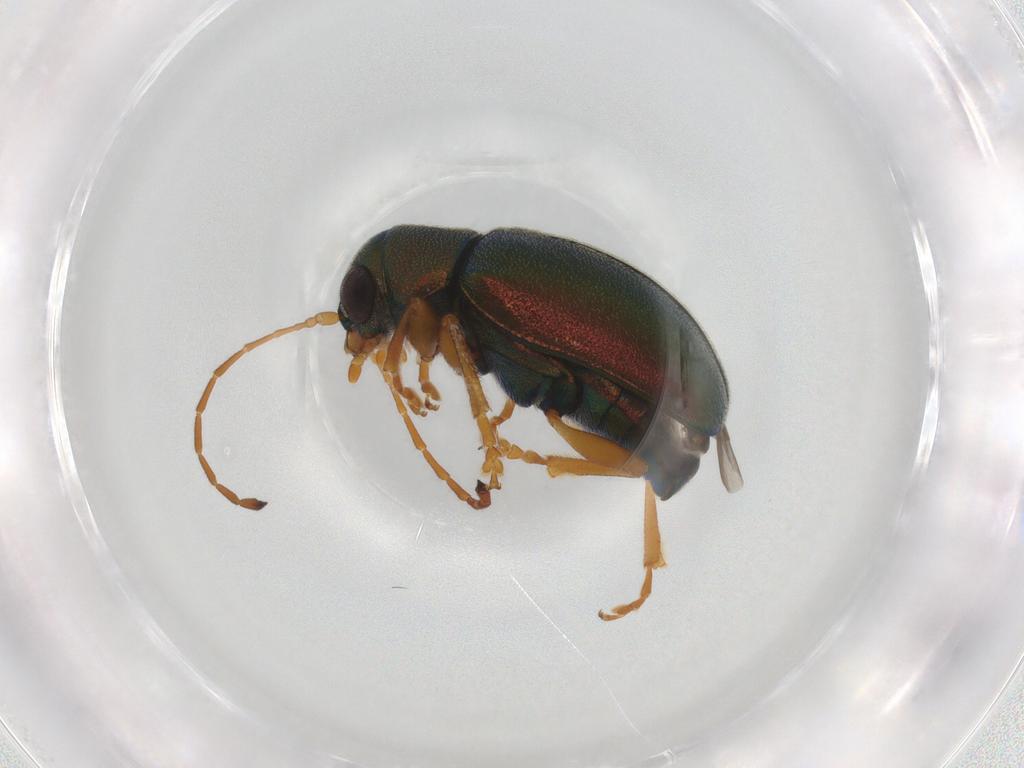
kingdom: Animalia
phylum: Arthropoda
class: Insecta
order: Coleoptera
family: Chrysomelidae
